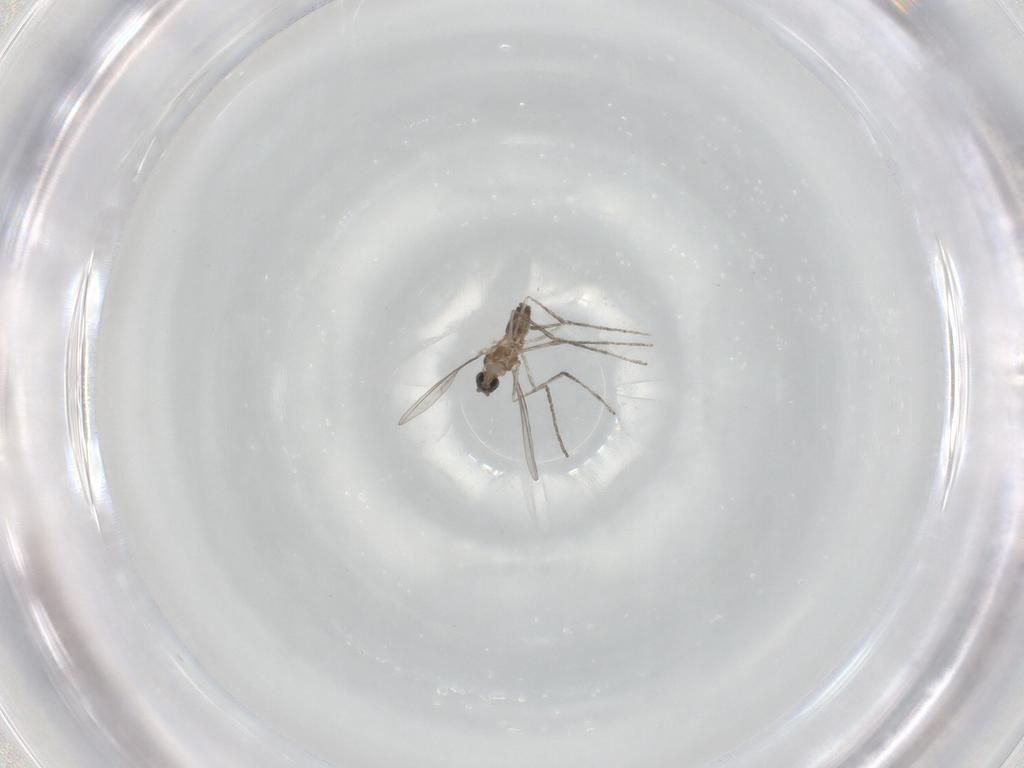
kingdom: Animalia
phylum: Arthropoda
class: Insecta
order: Diptera
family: Cecidomyiidae
